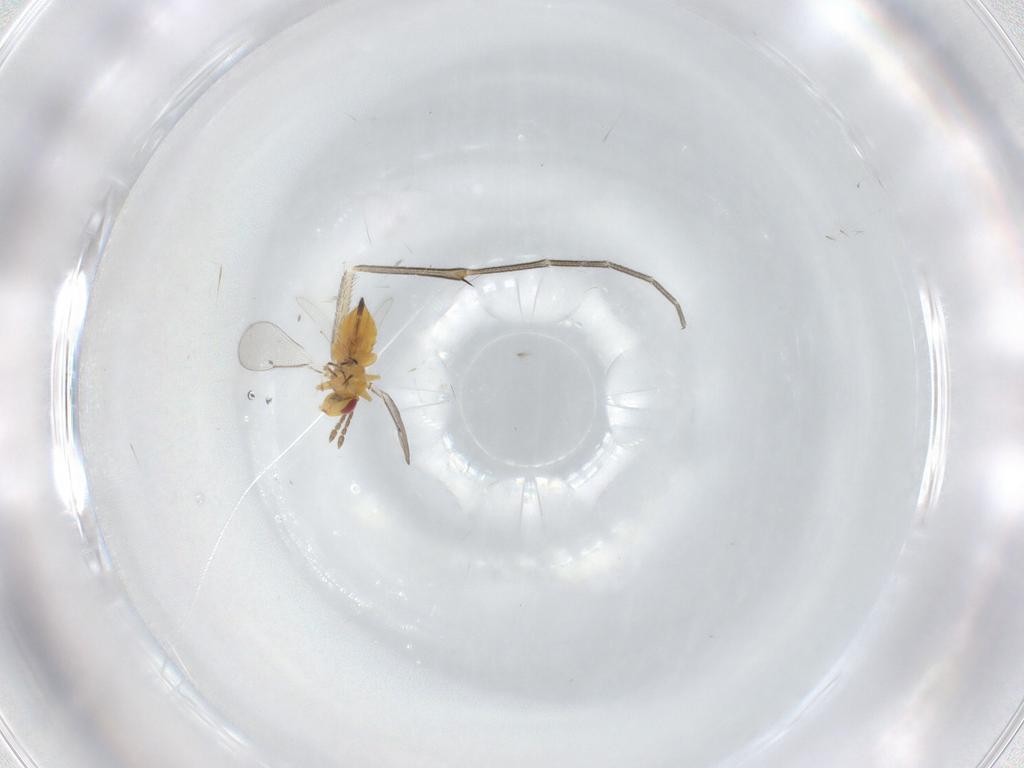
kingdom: Animalia
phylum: Arthropoda
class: Insecta
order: Hymenoptera
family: Eulophidae
